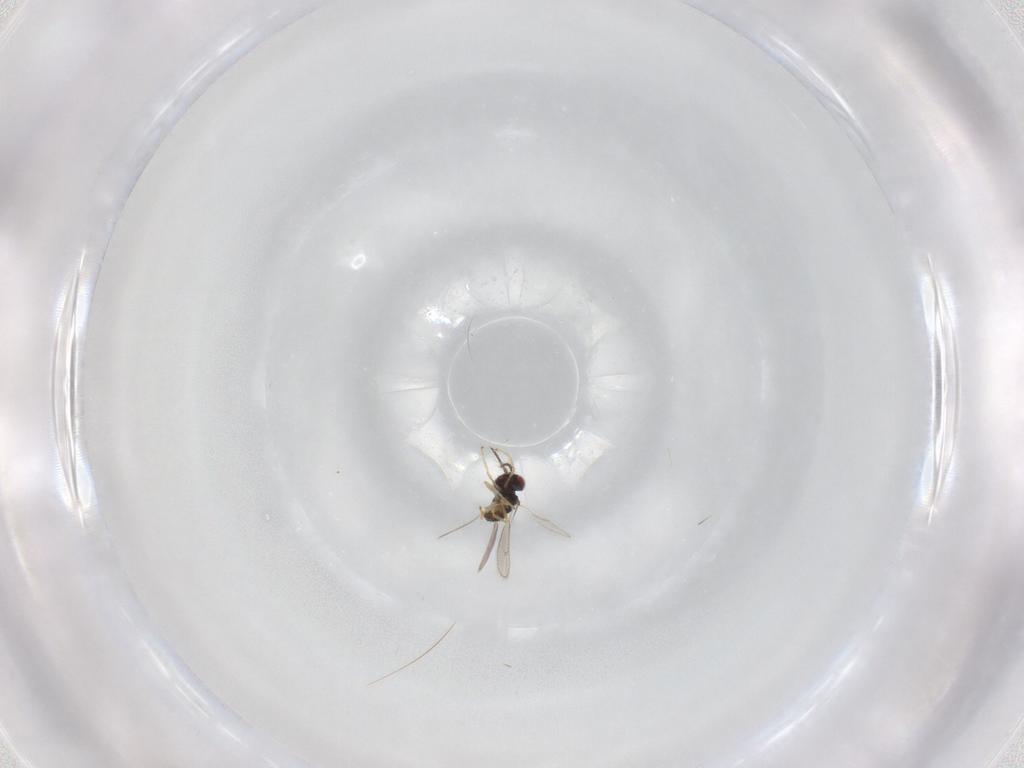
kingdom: Animalia
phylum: Arthropoda
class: Insecta
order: Hymenoptera
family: Eulophidae
